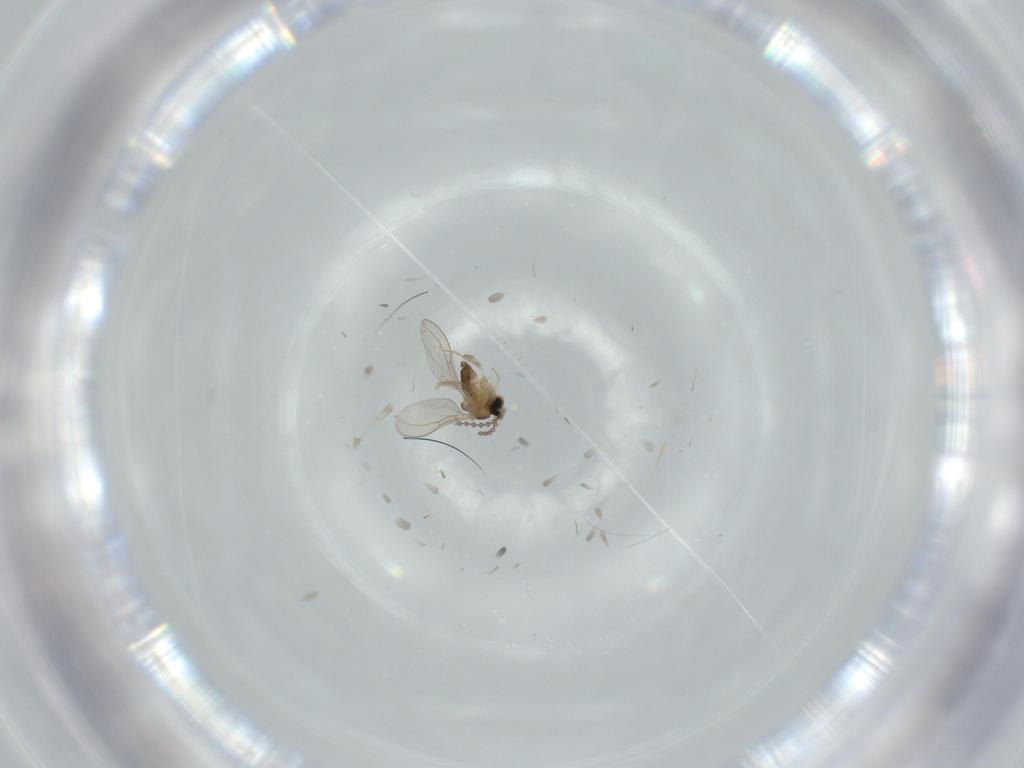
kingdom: Animalia
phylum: Arthropoda
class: Insecta
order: Diptera
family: Cecidomyiidae
